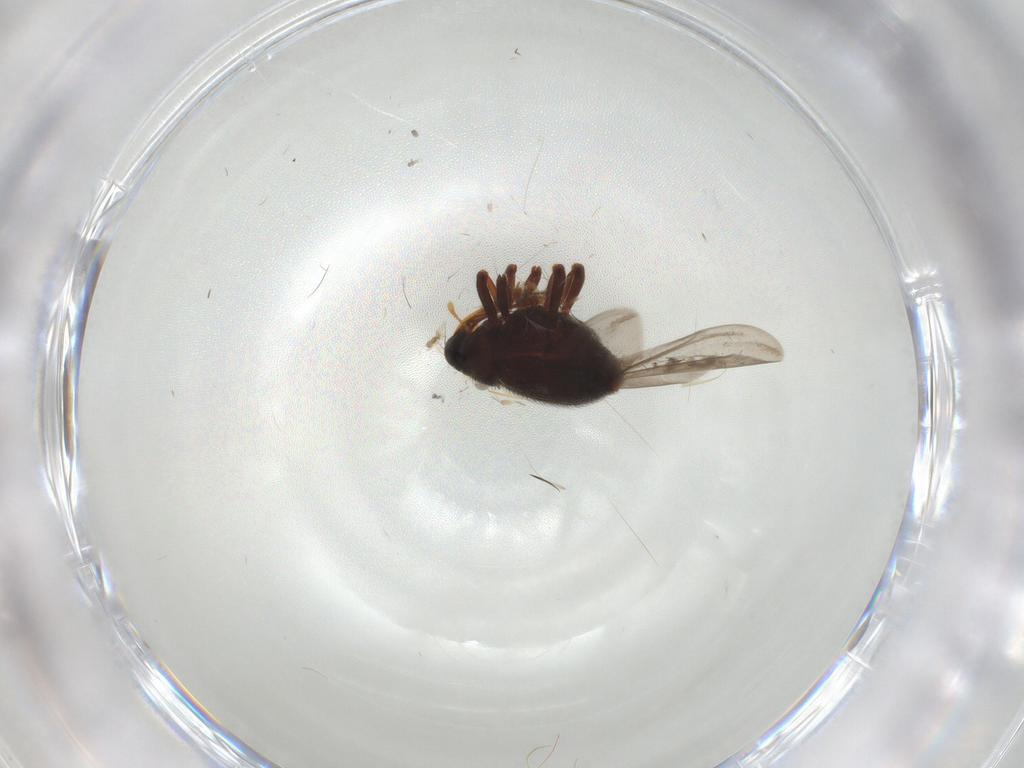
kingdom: Animalia
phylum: Arthropoda
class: Insecta
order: Coleoptera
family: Curculionidae
